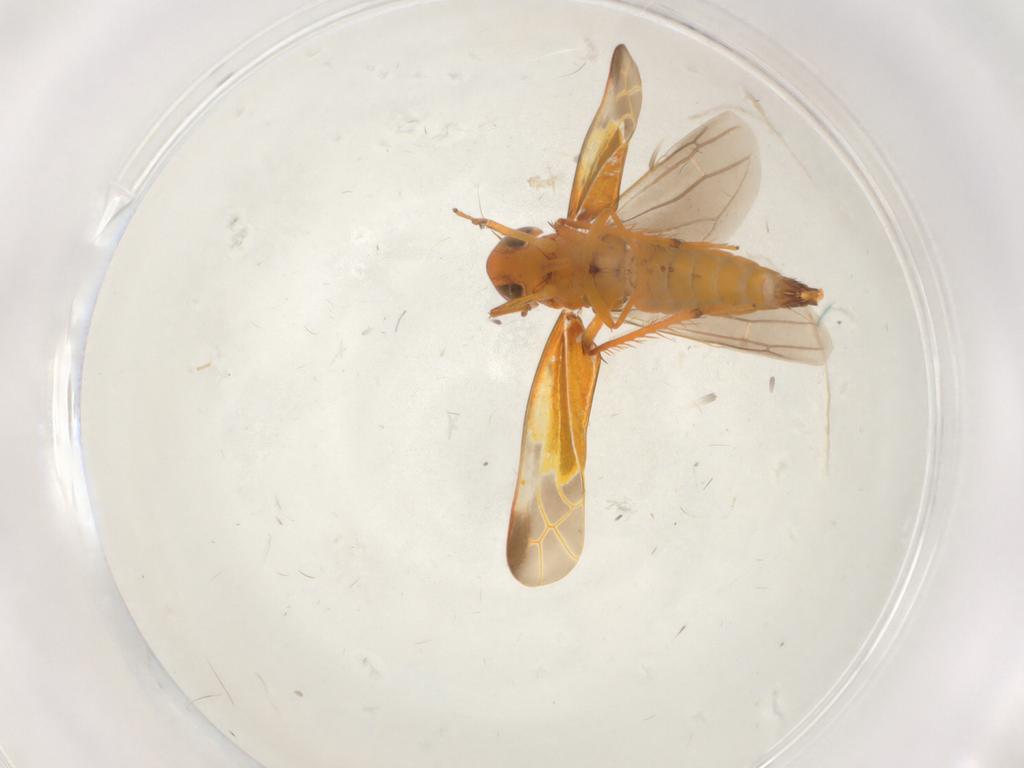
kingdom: Animalia
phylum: Arthropoda
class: Insecta
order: Hemiptera
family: Cicadellidae
